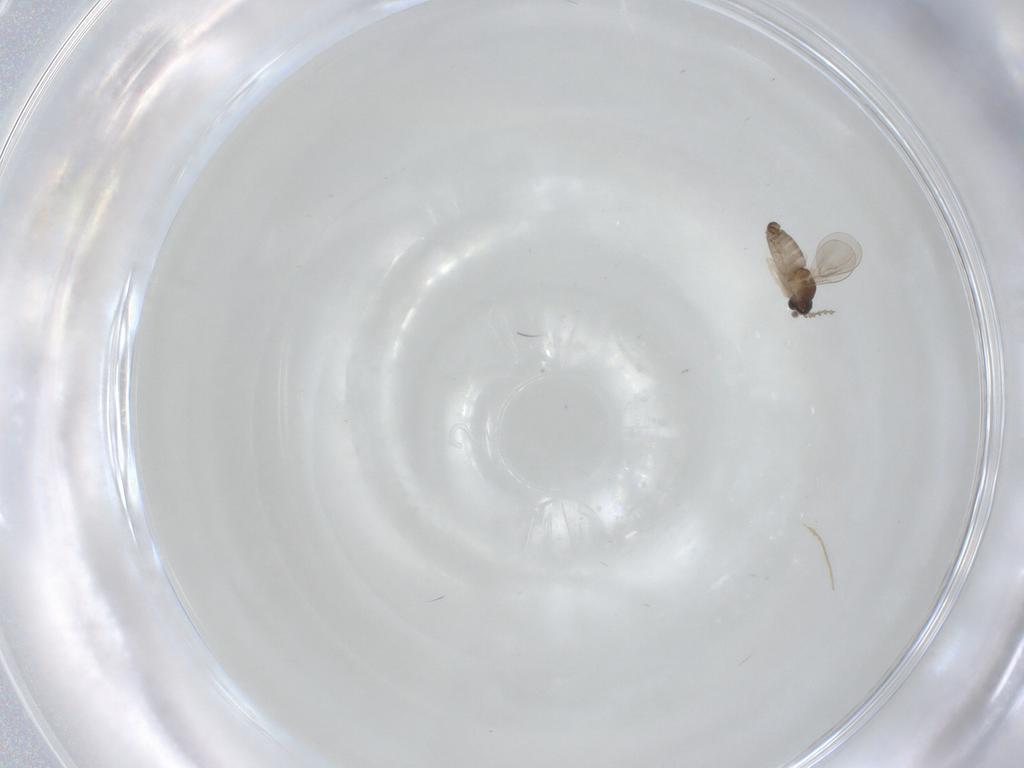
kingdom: Animalia
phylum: Arthropoda
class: Insecta
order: Diptera
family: Cecidomyiidae
